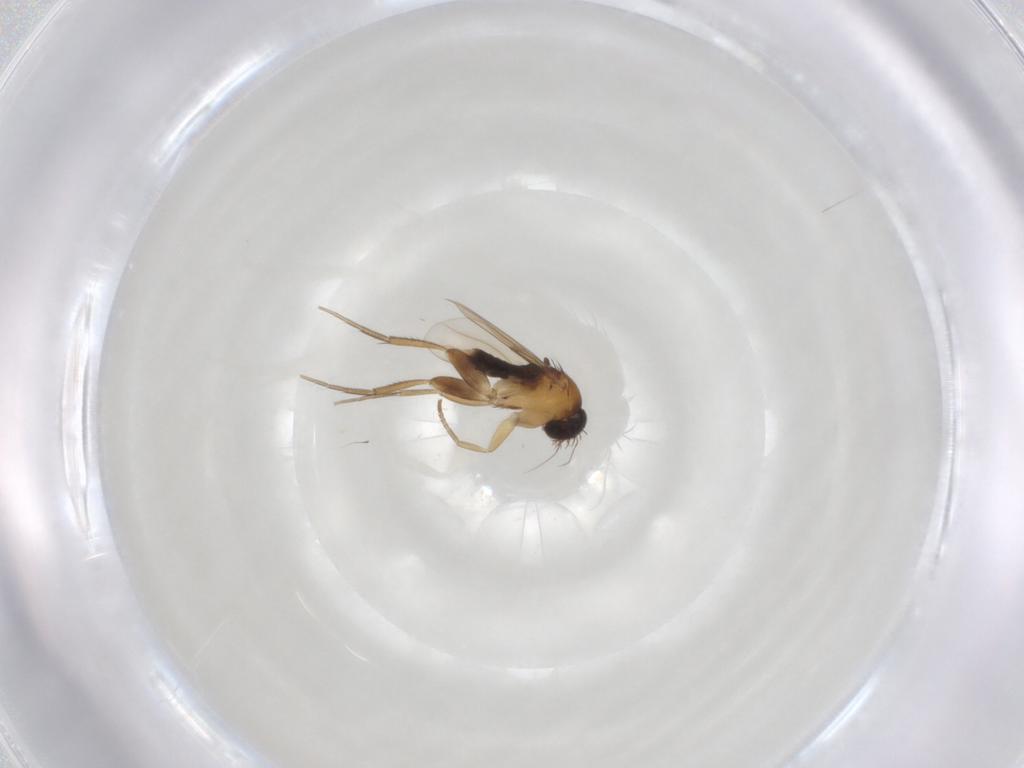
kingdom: Animalia
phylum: Arthropoda
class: Insecta
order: Diptera
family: Phoridae
